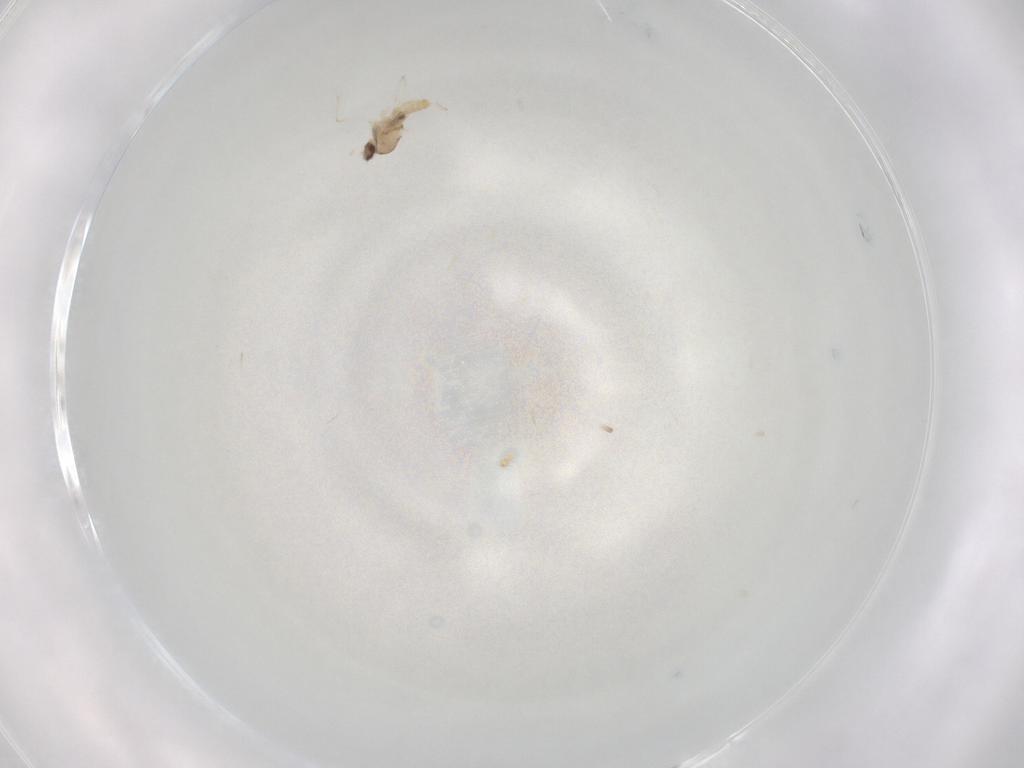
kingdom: Animalia
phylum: Arthropoda
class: Insecta
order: Diptera
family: Cecidomyiidae
